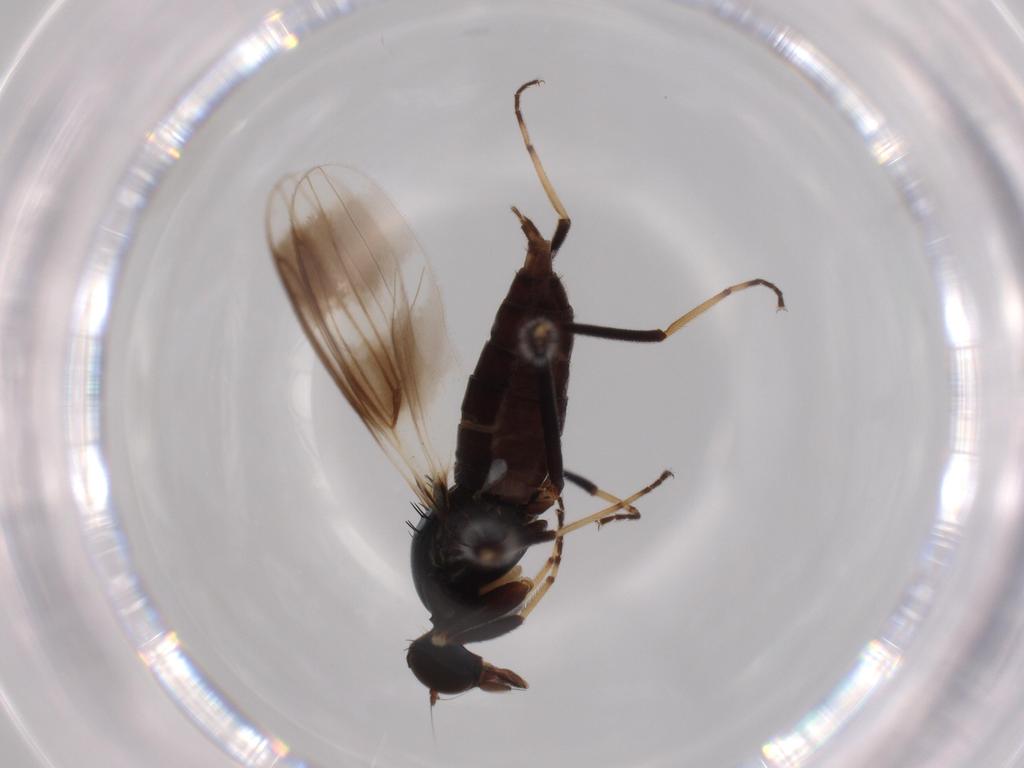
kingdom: Animalia
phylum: Arthropoda
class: Insecta
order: Diptera
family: Hybotidae
